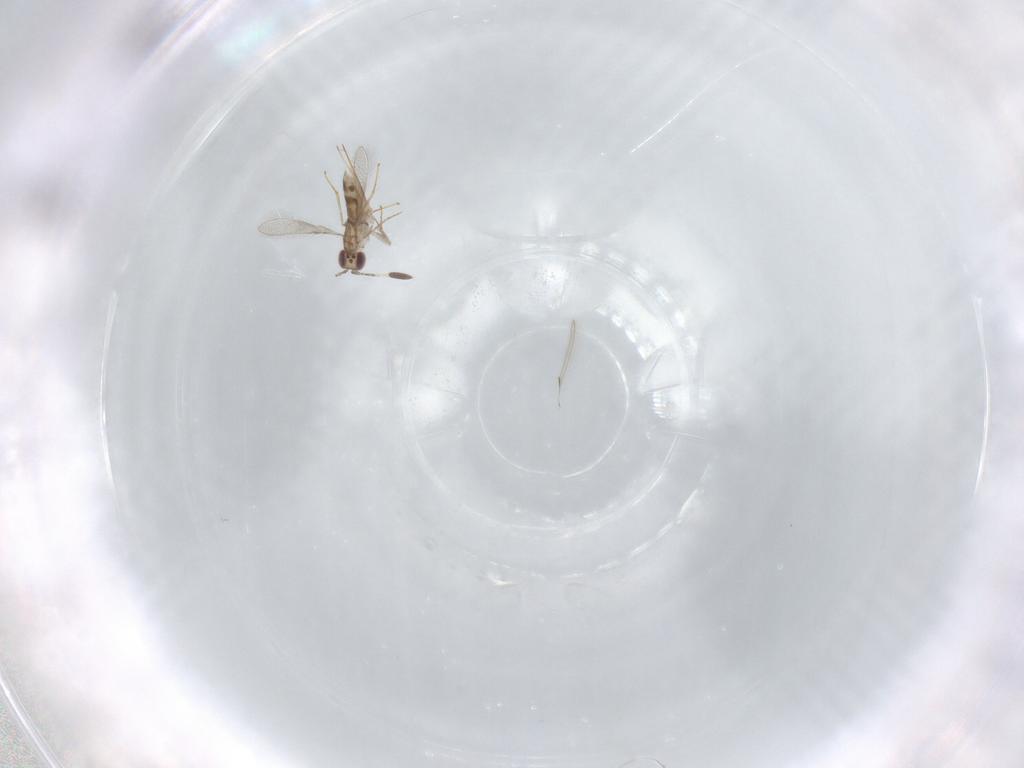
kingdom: Animalia
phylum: Arthropoda
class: Insecta
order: Hymenoptera
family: Mymaridae
